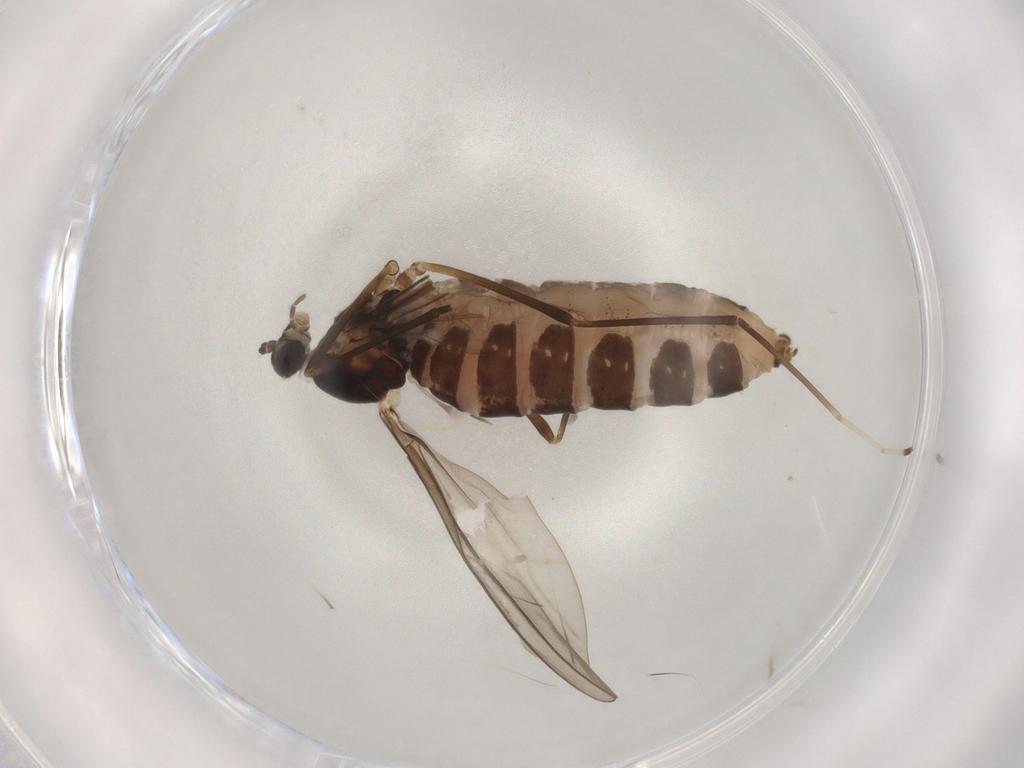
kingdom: Animalia
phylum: Arthropoda
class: Insecta
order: Diptera
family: Cecidomyiidae
